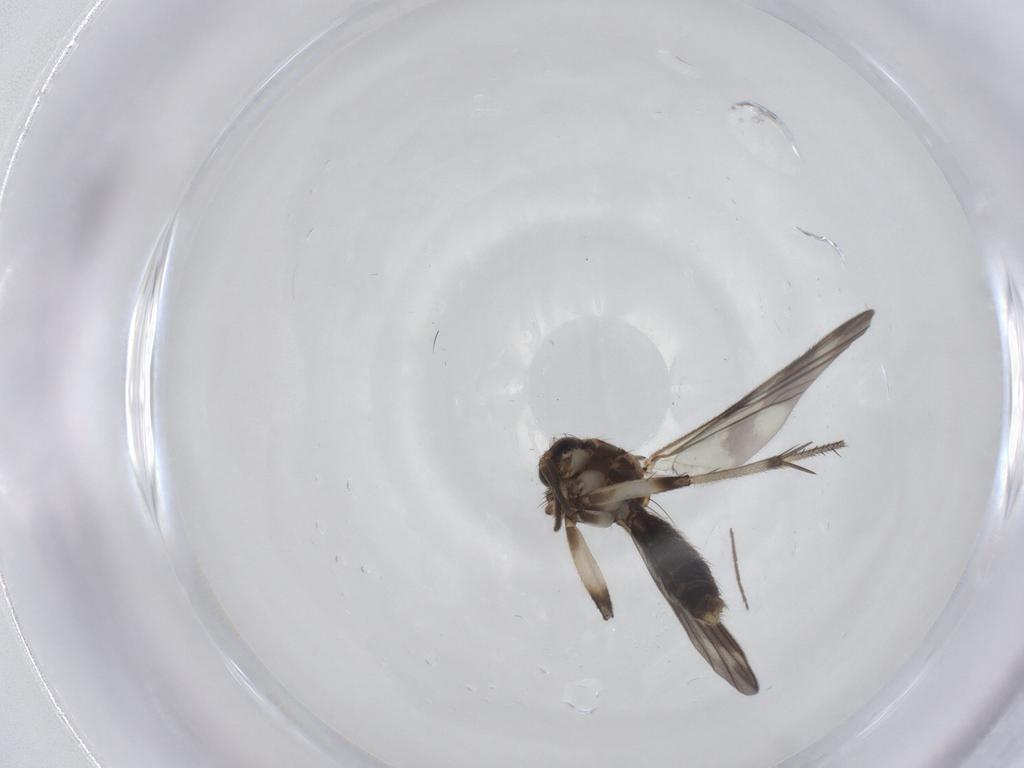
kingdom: Animalia
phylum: Arthropoda
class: Insecta
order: Diptera
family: Mycetophilidae
